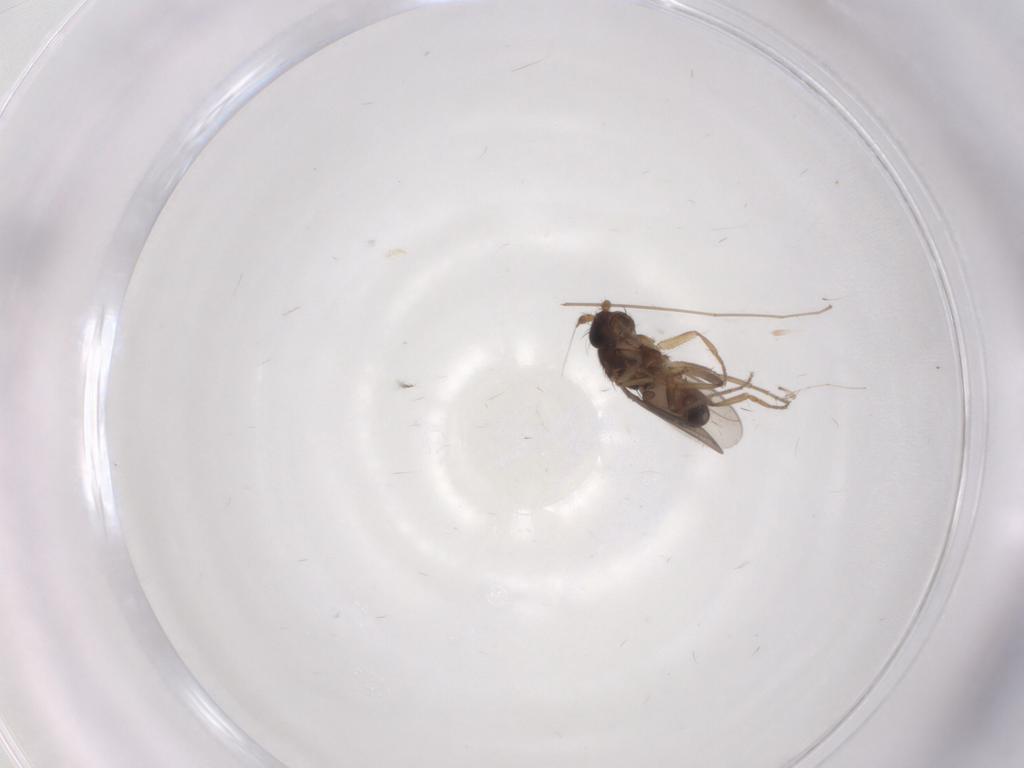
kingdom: Animalia
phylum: Arthropoda
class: Insecta
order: Diptera
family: Sphaeroceridae
